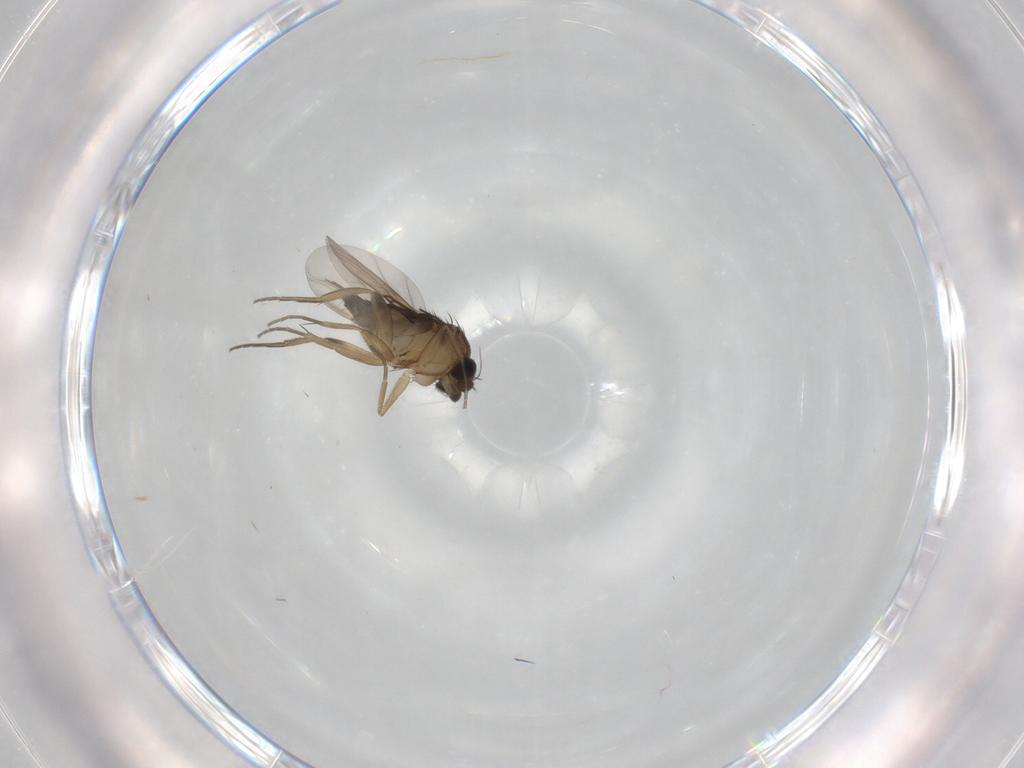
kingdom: Animalia
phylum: Arthropoda
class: Insecta
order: Diptera
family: Phoridae
